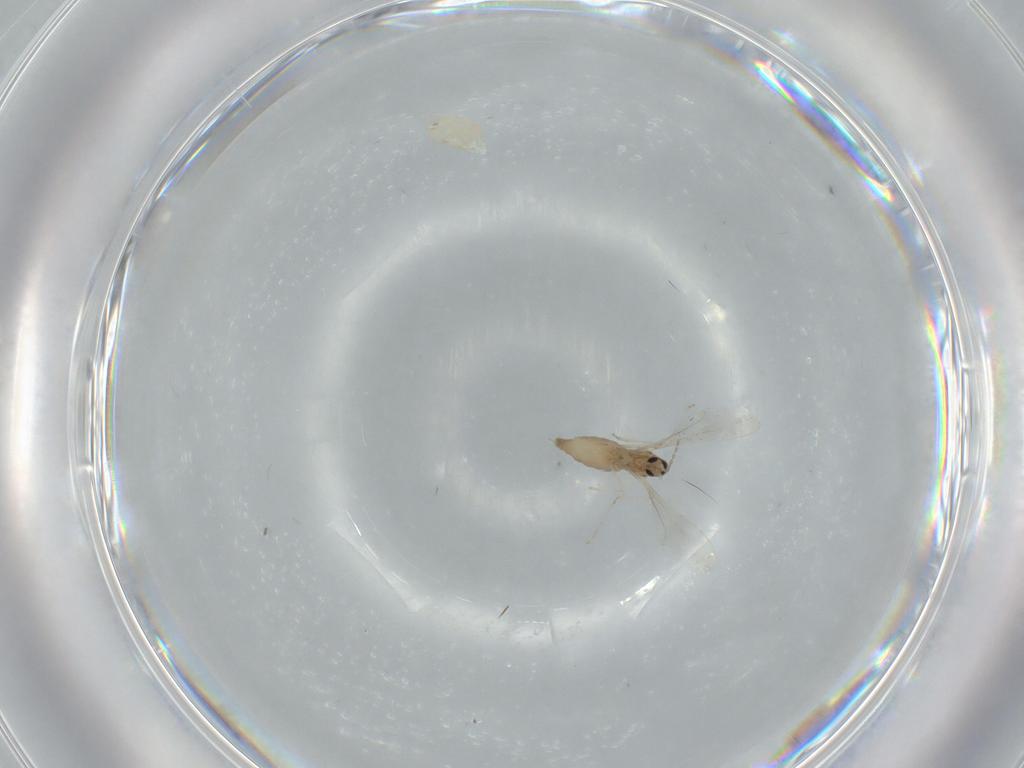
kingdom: Animalia
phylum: Arthropoda
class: Insecta
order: Diptera
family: Cecidomyiidae
